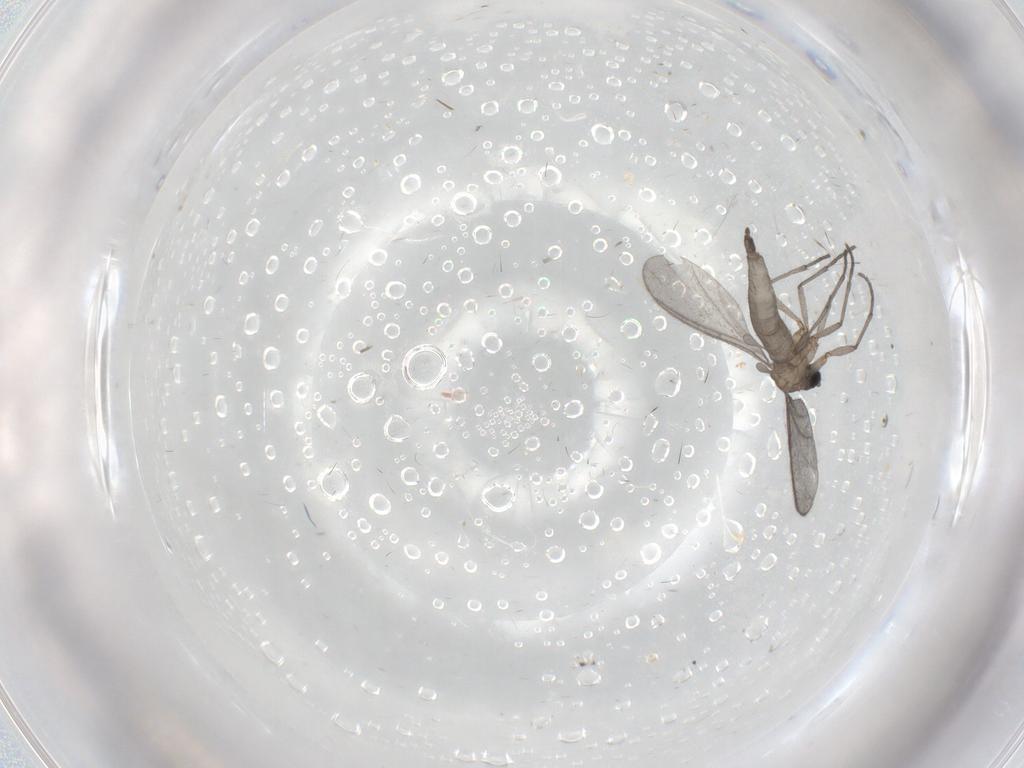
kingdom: Animalia
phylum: Arthropoda
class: Insecta
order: Diptera
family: Sciaridae
